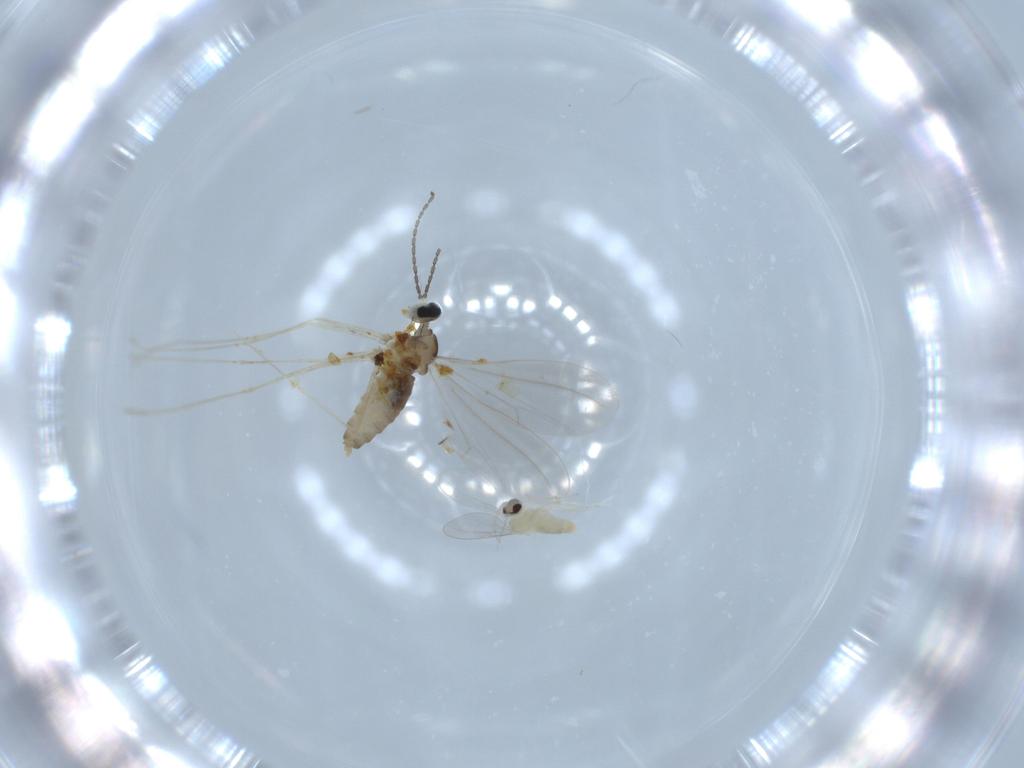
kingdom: Animalia
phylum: Arthropoda
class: Insecta
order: Diptera
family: Cecidomyiidae
